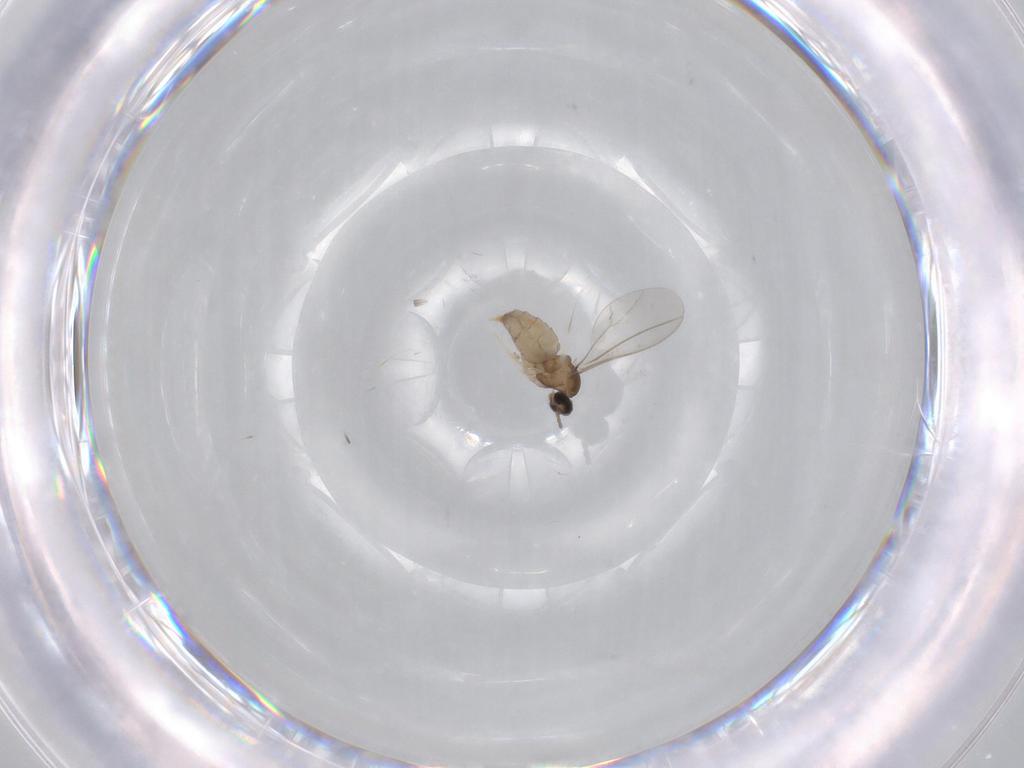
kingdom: Animalia
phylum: Arthropoda
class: Insecta
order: Diptera
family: Cecidomyiidae
